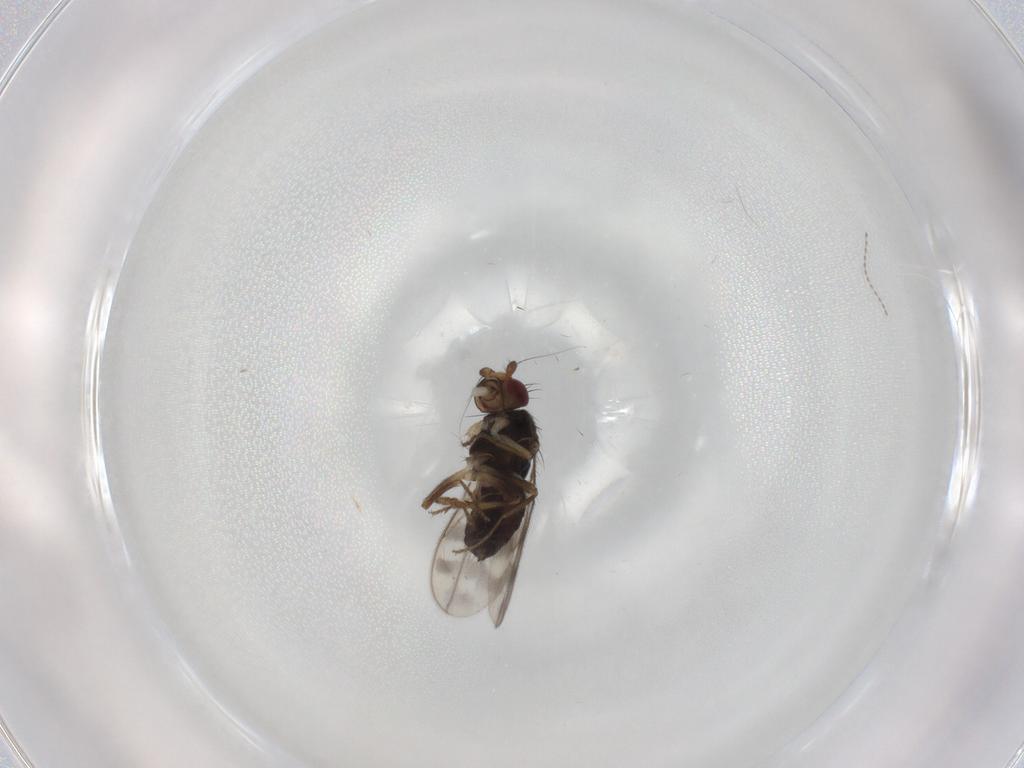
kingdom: Animalia
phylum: Arthropoda
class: Insecta
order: Diptera
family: Sphaeroceridae
